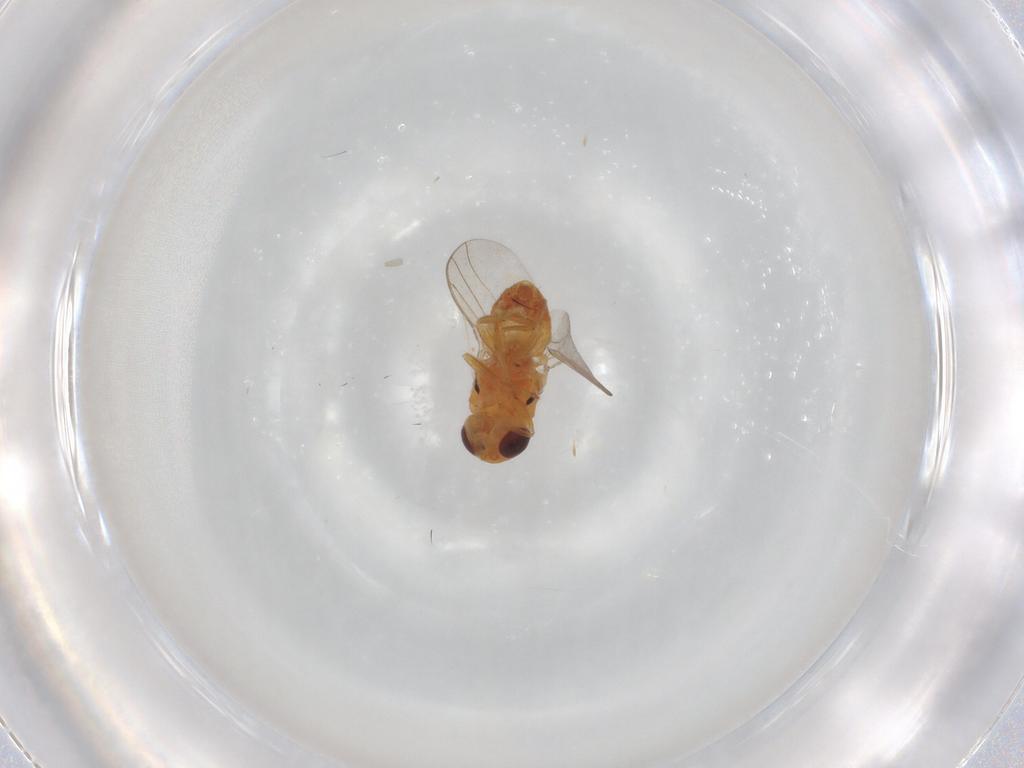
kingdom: Animalia
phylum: Arthropoda
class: Insecta
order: Diptera
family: Chloropidae
